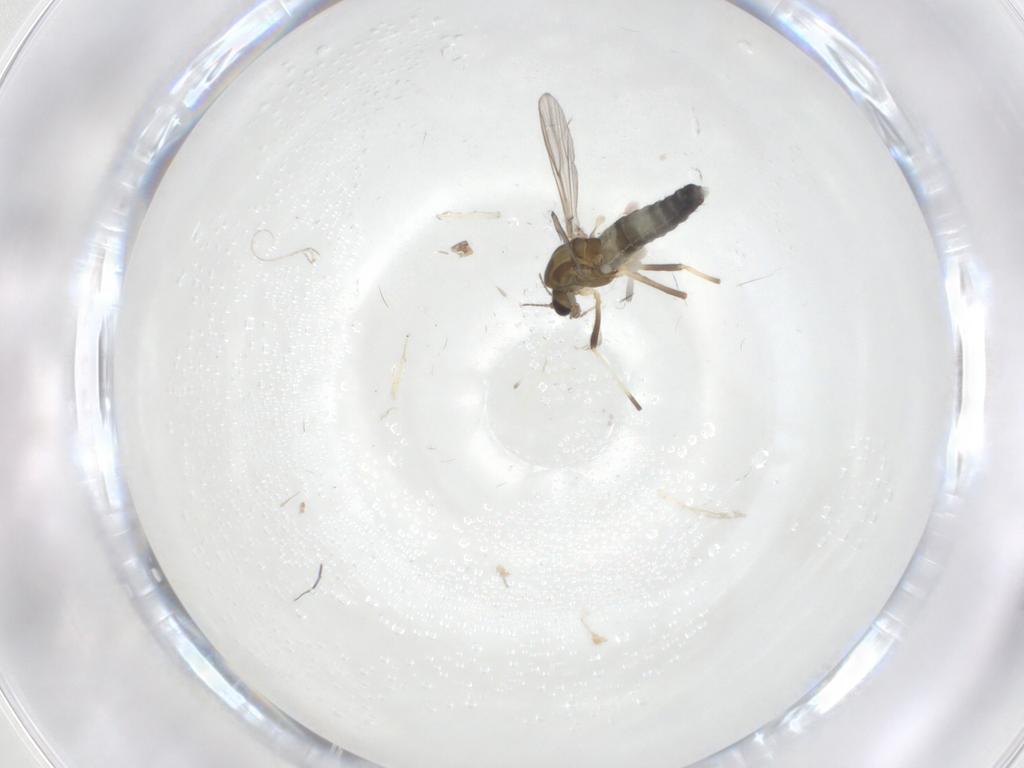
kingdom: Animalia
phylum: Arthropoda
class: Insecta
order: Diptera
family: Chironomidae
